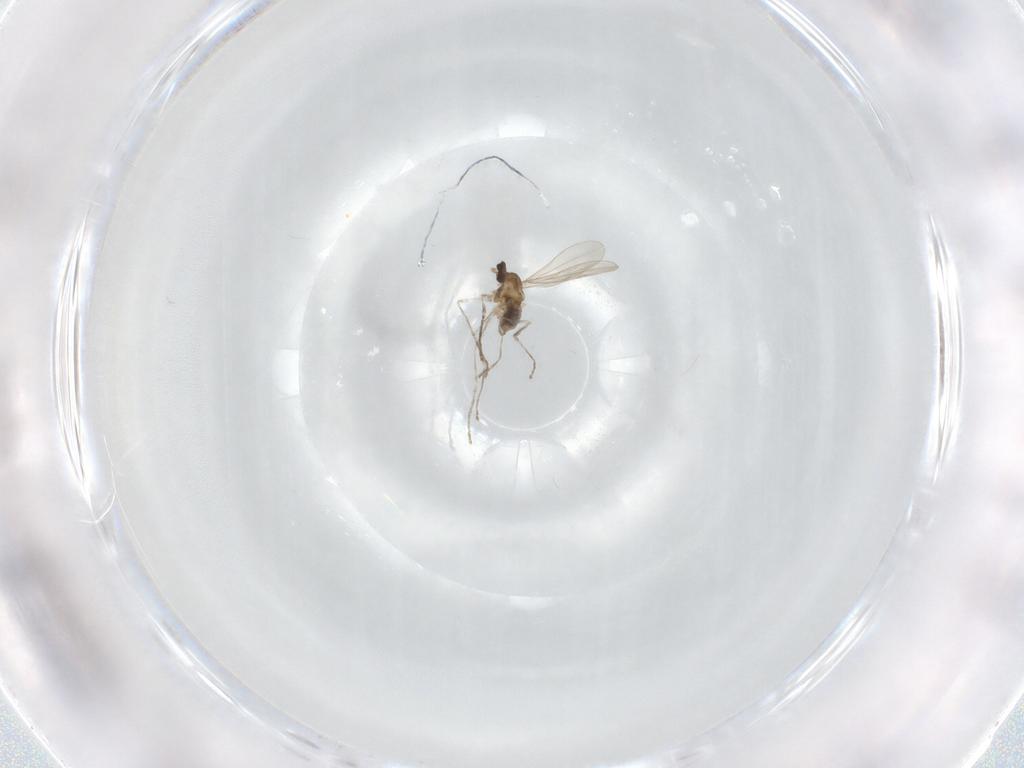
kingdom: Animalia
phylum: Arthropoda
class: Insecta
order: Diptera
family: Cecidomyiidae
